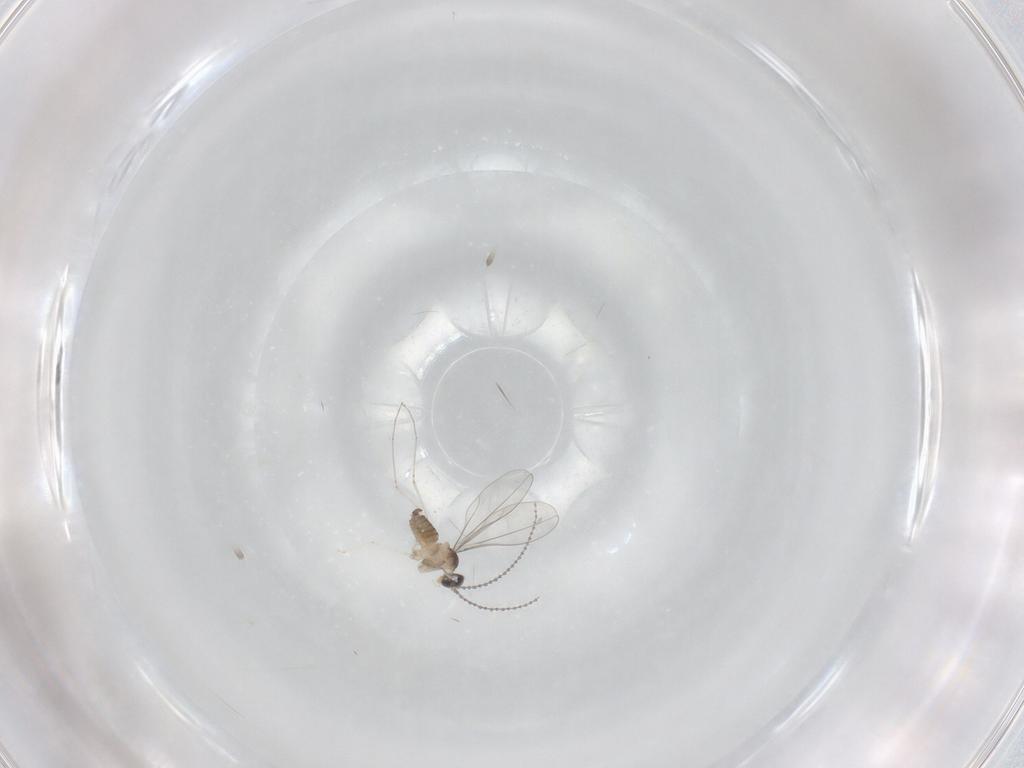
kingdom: Animalia
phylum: Arthropoda
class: Insecta
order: Diptera
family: Cecidomyiidae
